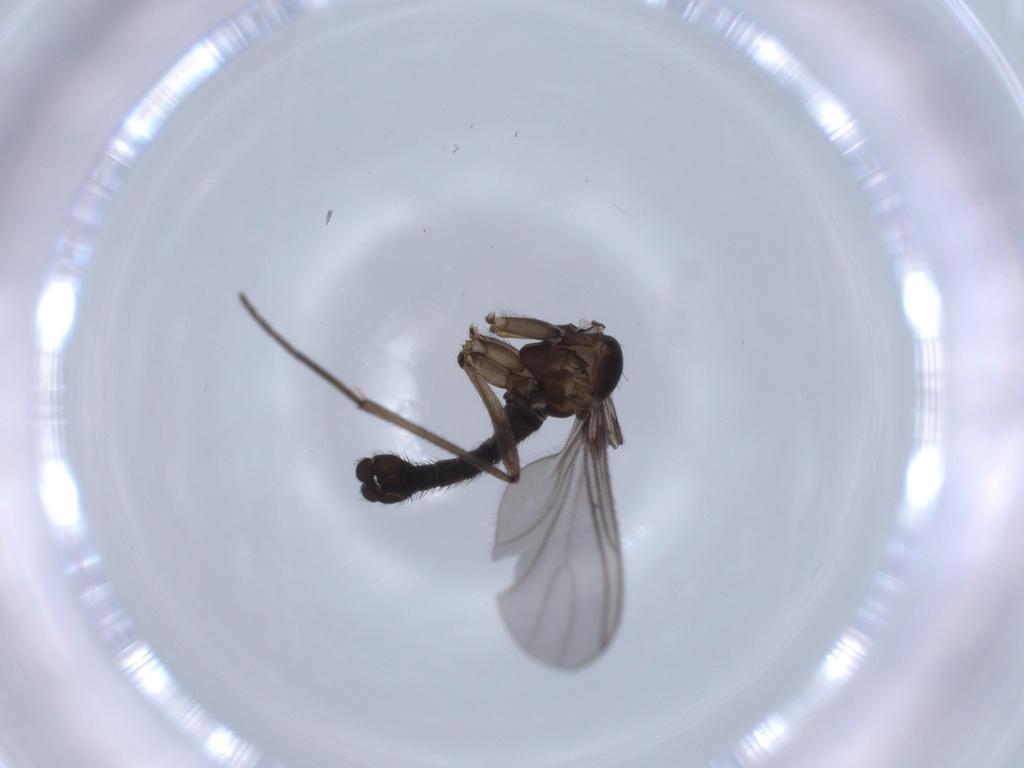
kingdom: Animalia
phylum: Arthropoda
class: Insecta
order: Diptera
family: Sciaridae
